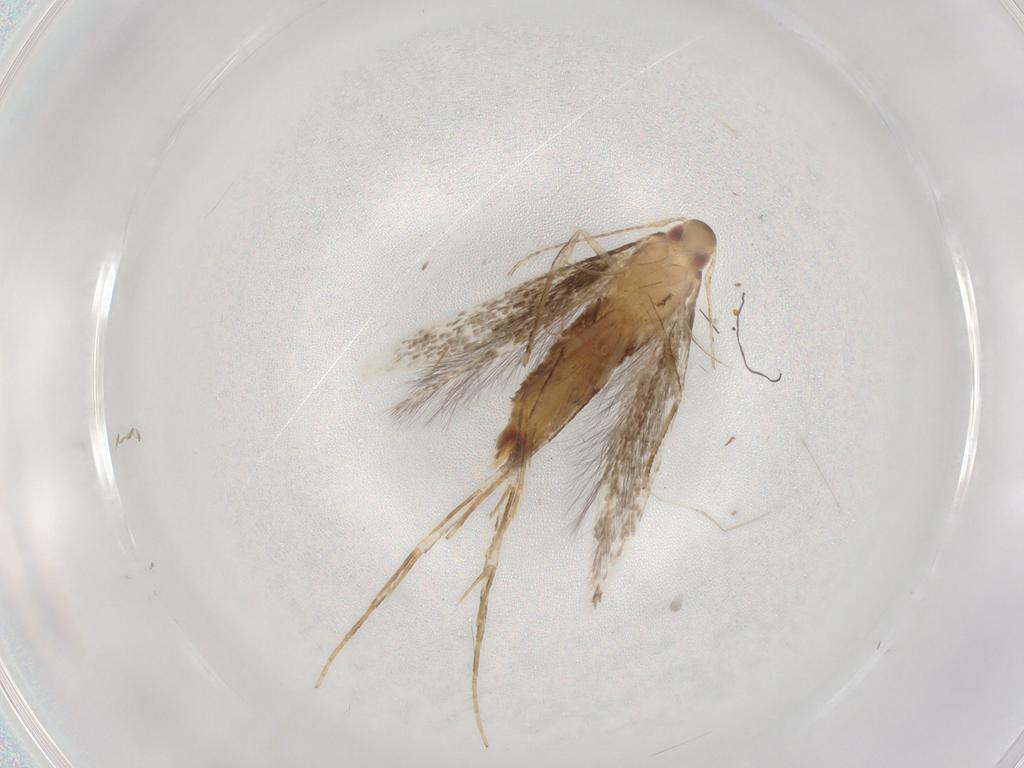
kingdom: Animalia
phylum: Arthropoda
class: Insecta
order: Lepidoptera
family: Cosmopterigidae
